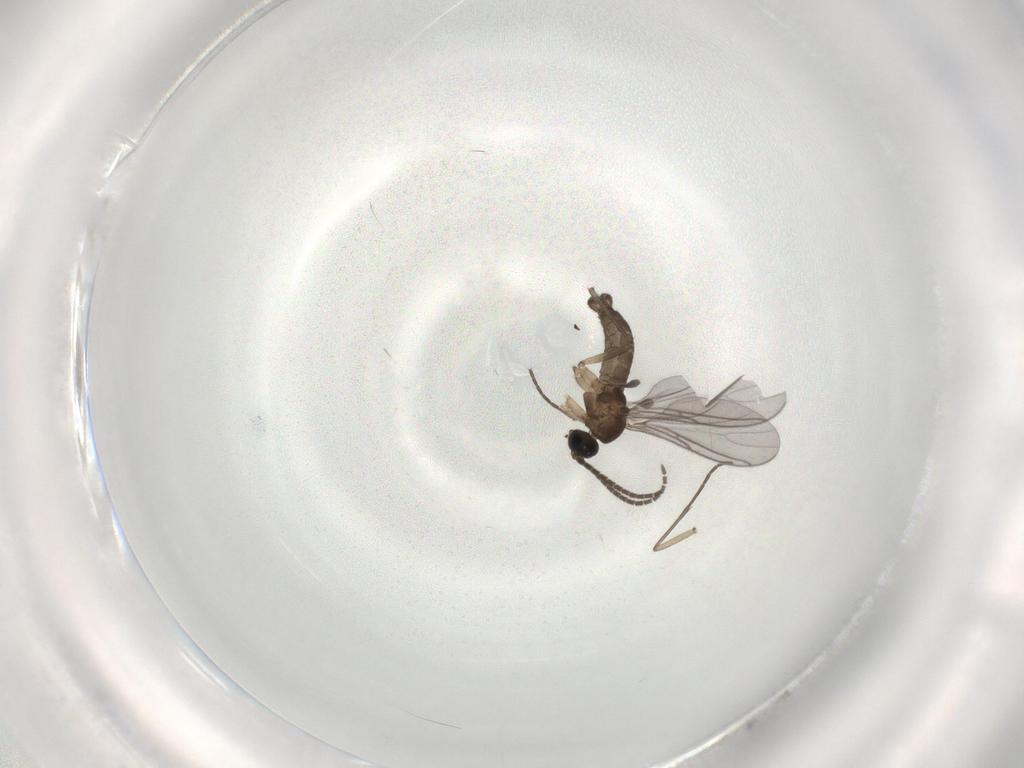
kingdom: Animalia
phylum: Arthropoda
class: Insecta
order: Diptera
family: Sciaridae
